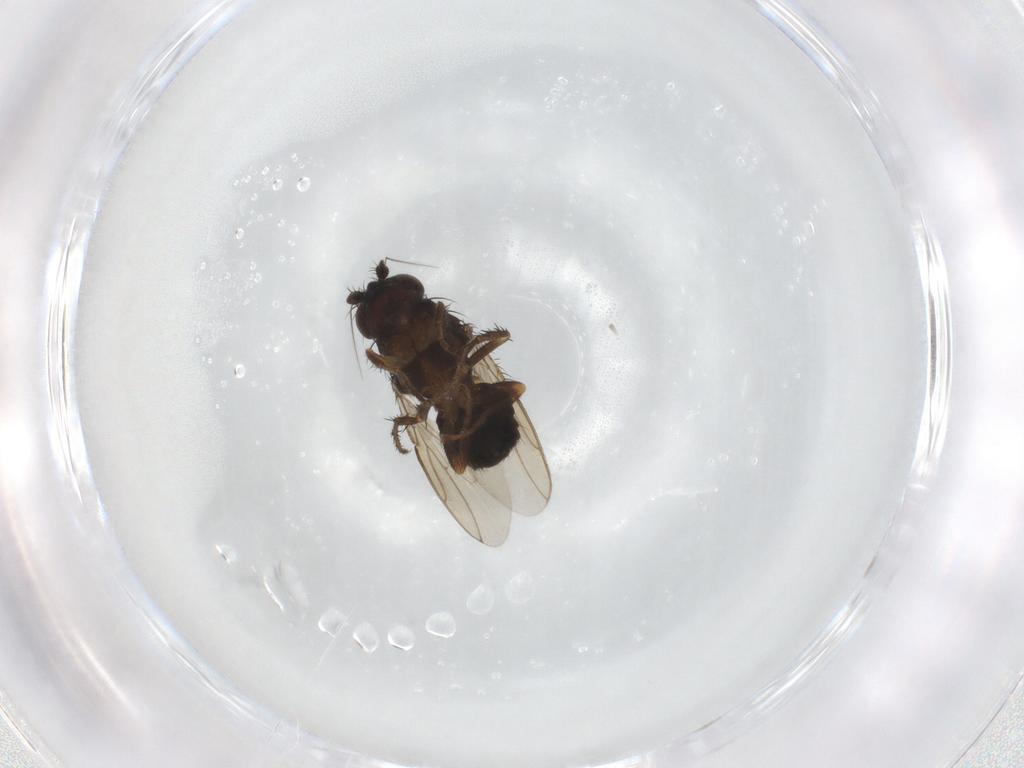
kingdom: Animalia
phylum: Arthropoda
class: Insecta
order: Diptera
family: Sphaeroceridae
